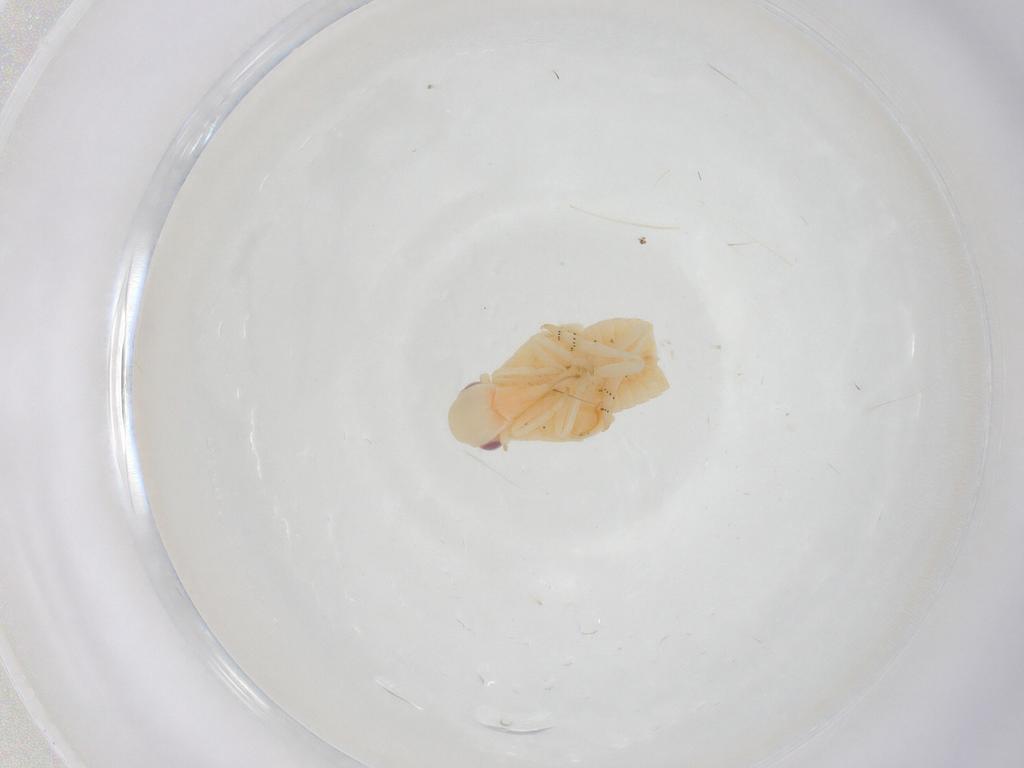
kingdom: Animalia
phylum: Arthropoda
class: Insecta
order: Hemiptera
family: Flatidae
